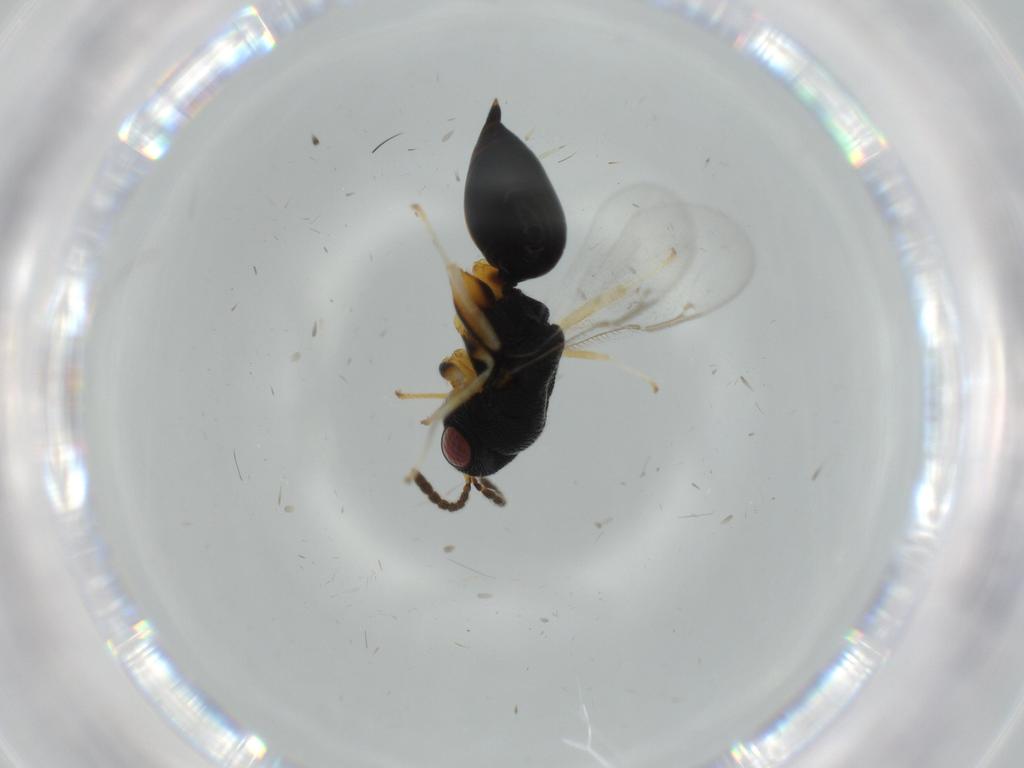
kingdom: Animalia
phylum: Arthropoda
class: Insecta
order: Hymenoptera
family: Eurytomidae
